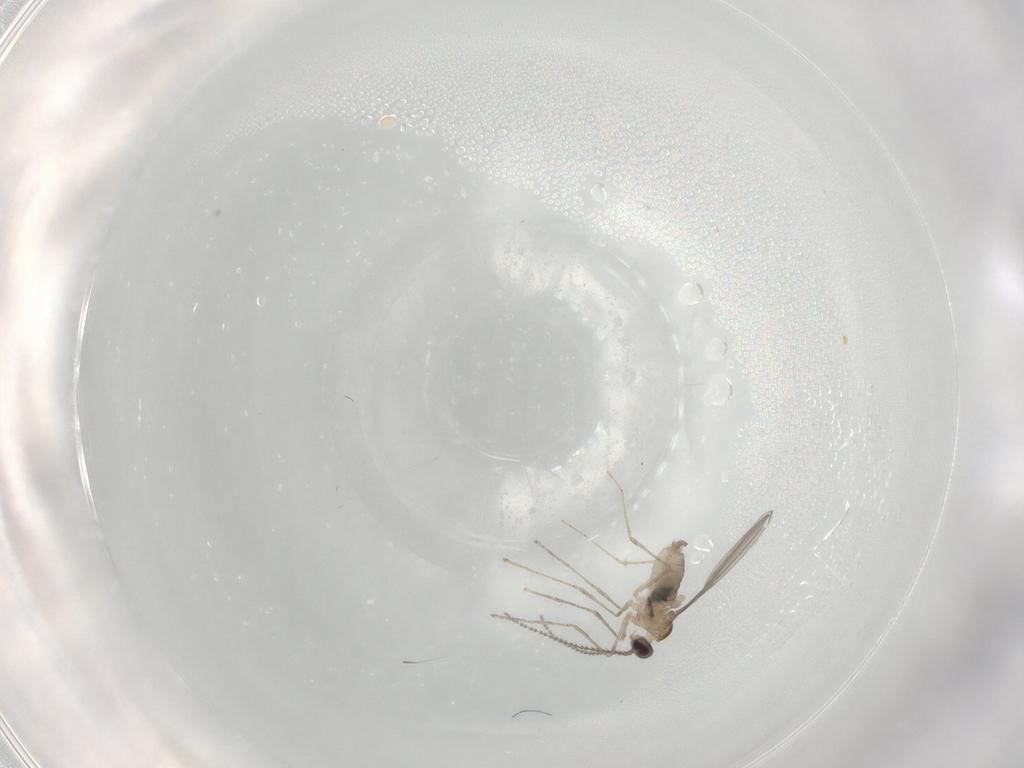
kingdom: Animalia
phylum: Arthropoda
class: Insecta
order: Diptera
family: Cecidomyiidae
